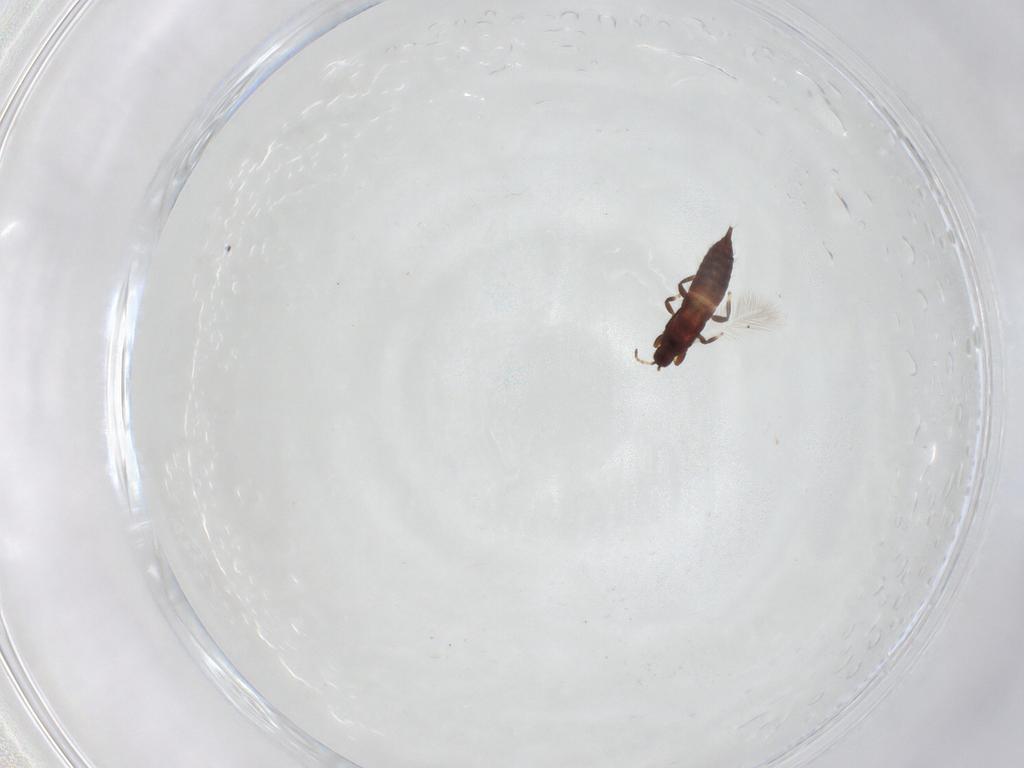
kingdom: Animalia
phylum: Arthropoda
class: Insecta
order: Thysanoptera
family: Phlaeothripidae
